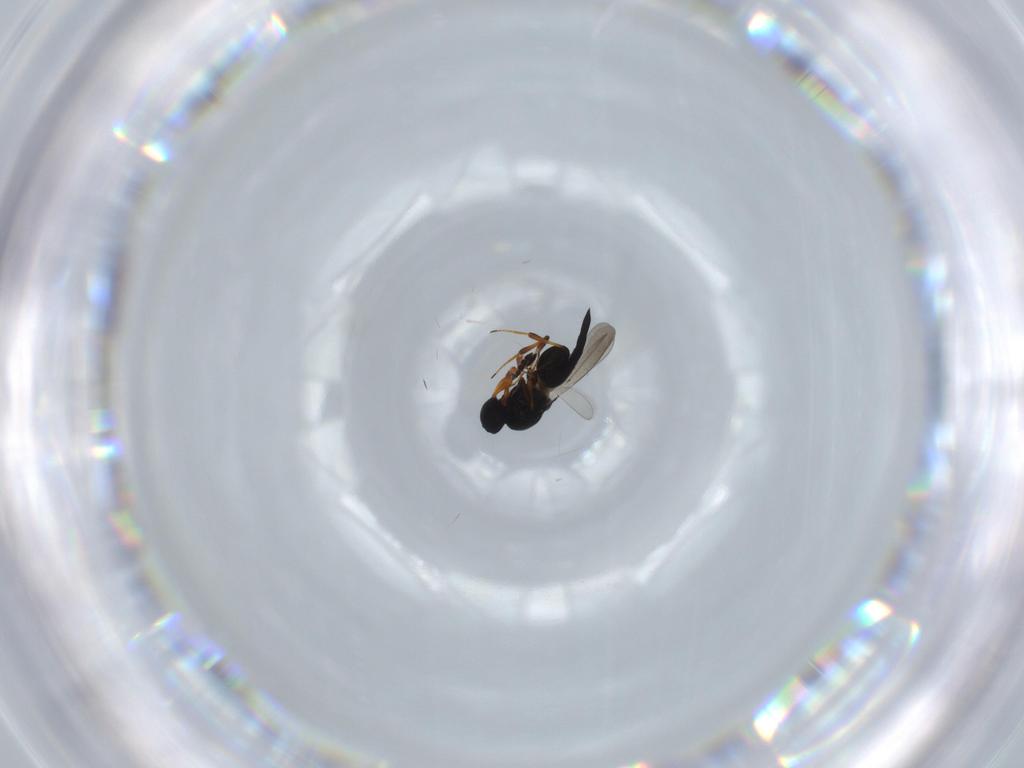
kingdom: Animalia
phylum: Arthropoda
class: Insecta
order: Hymenoptera
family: Platygastridae
